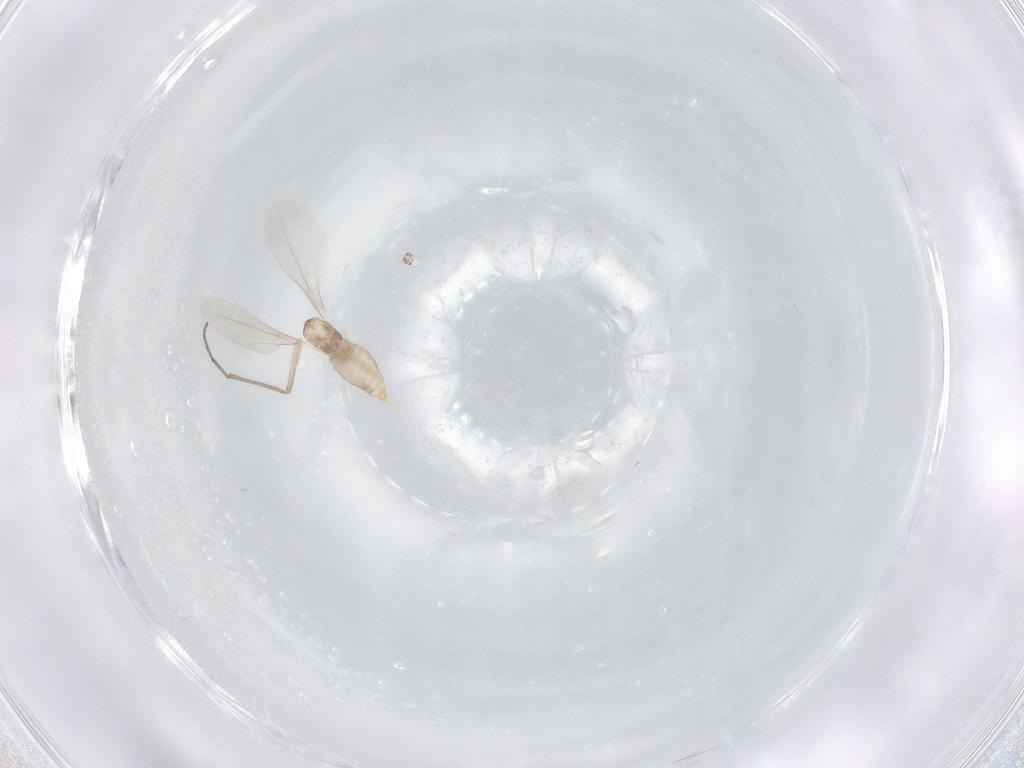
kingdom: Animalia
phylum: Arthropoda
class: Insecta
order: Diptera
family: Cecidomyiidae
